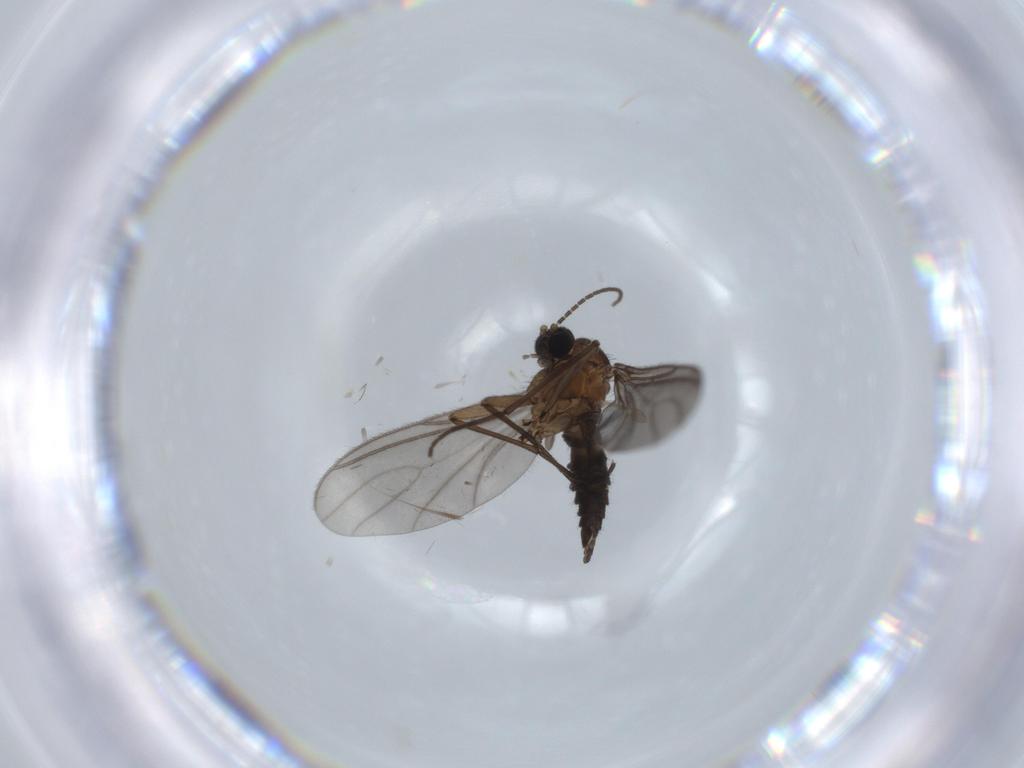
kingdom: Animalia
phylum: Arthropoda
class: Insecta
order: Diptera
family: Sciaridae
